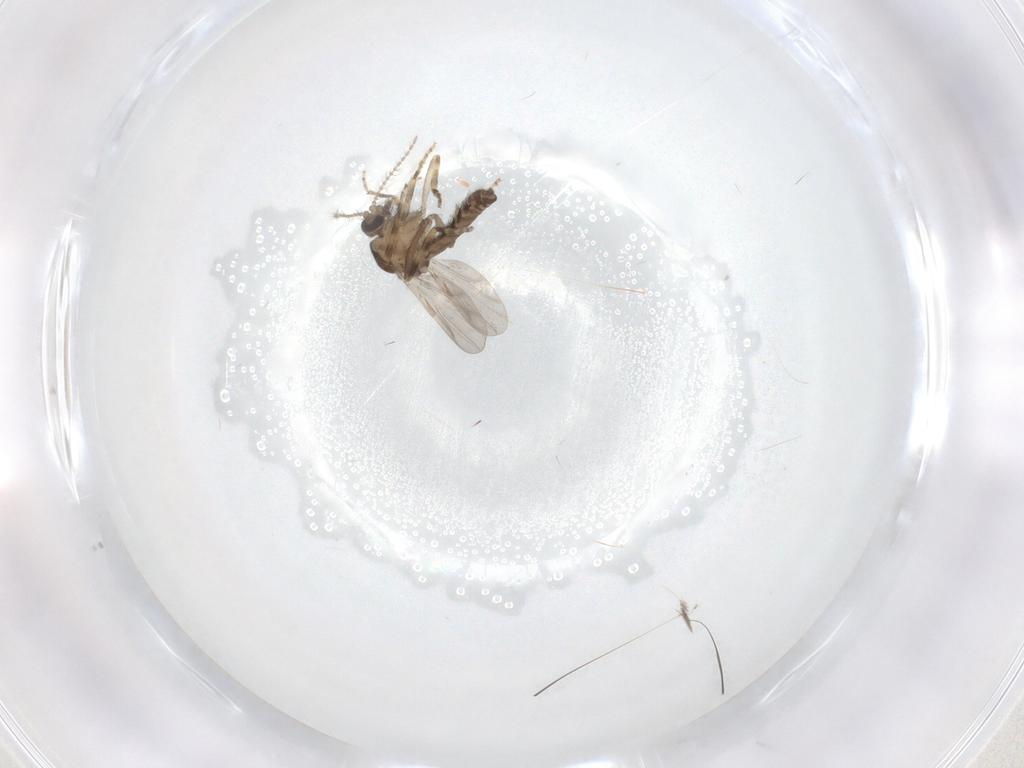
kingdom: Animalia
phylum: Arthropoda
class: Insecta
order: Diptera
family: Ceratopogonidae
